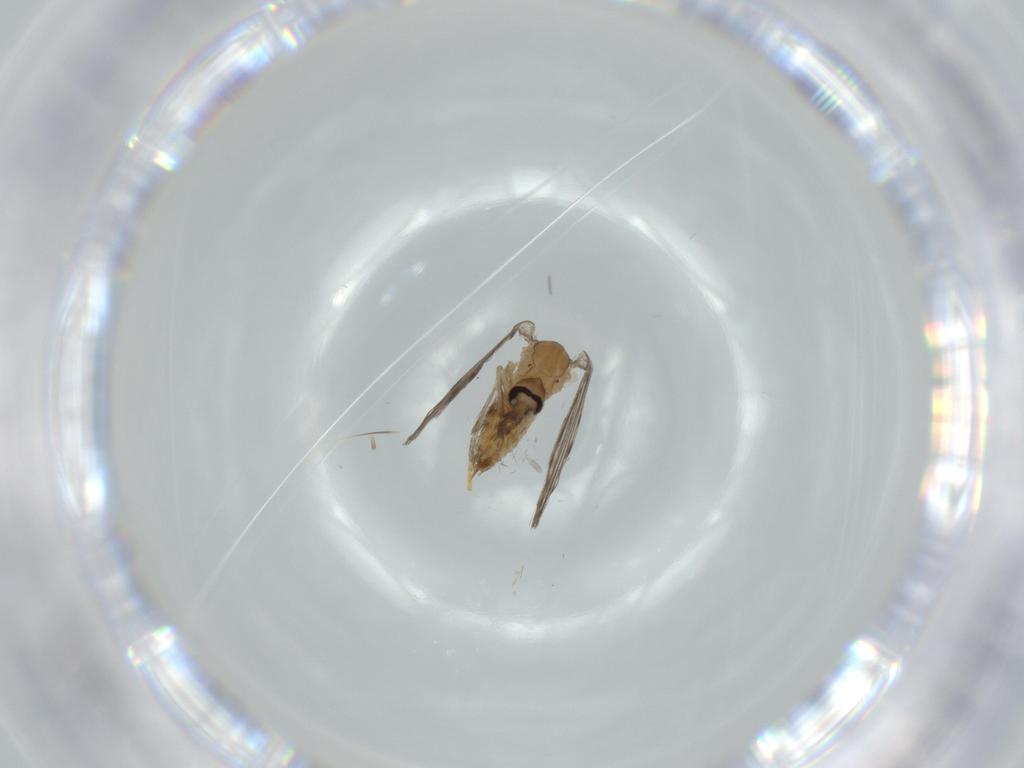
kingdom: Animalia
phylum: Arthropoda
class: Insecta
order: Diptera
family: Psychodidae
